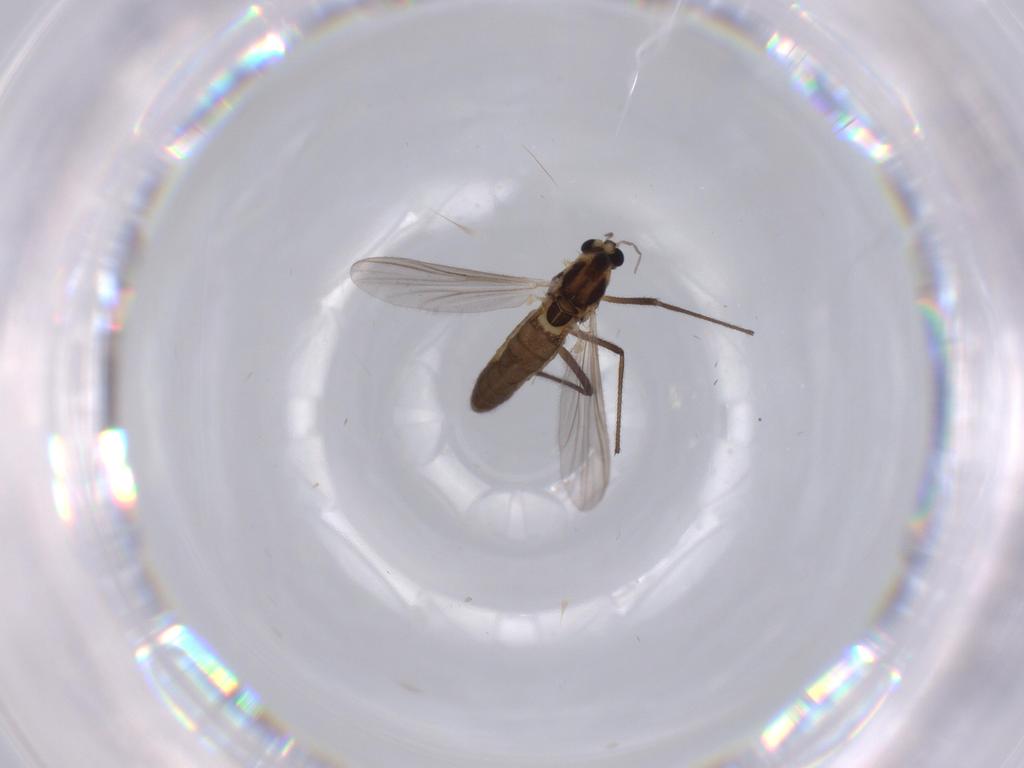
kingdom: Animalia
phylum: Arthropoda
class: Insecta
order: Diptera
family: Chironomidae
